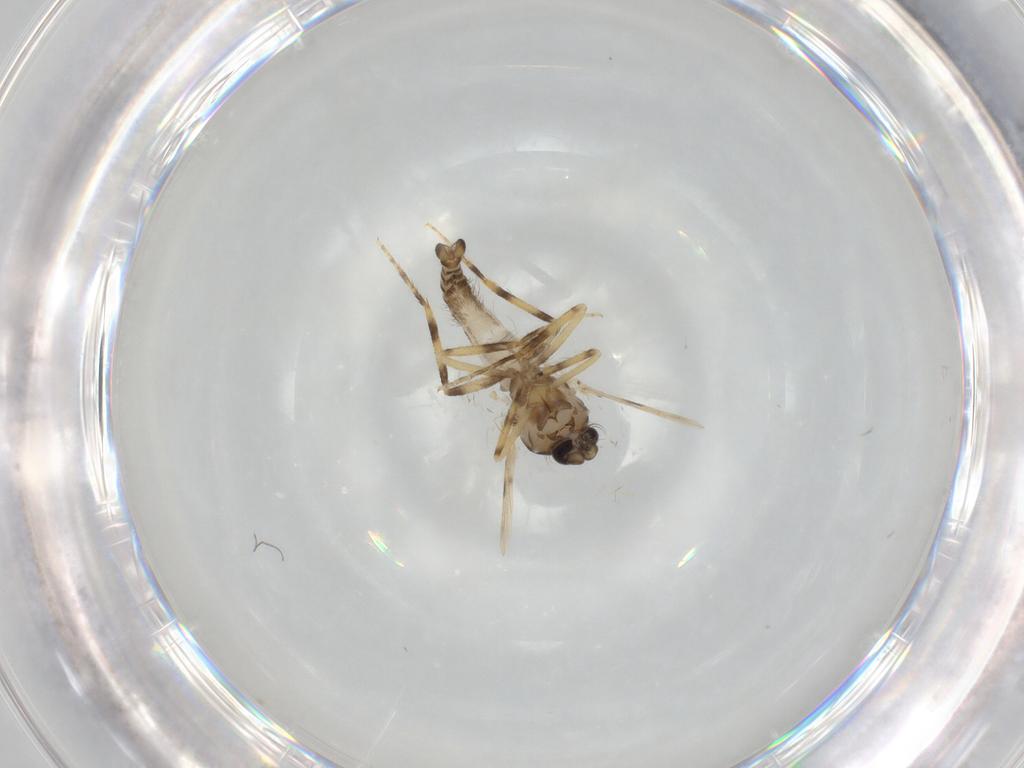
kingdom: Animalia
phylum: Arthropoda
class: Insecta
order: Diptera
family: Ceratopogonidae
